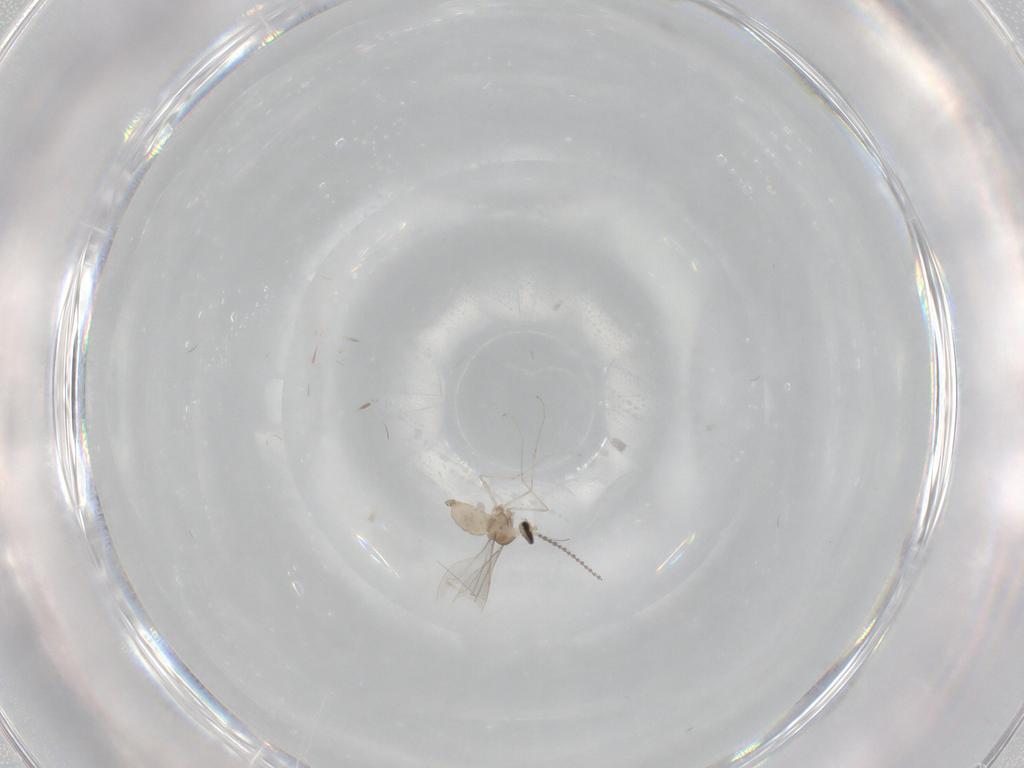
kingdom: Animalia
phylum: Arthropoda
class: Insecta
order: Diptera
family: Cecidomyiidae
